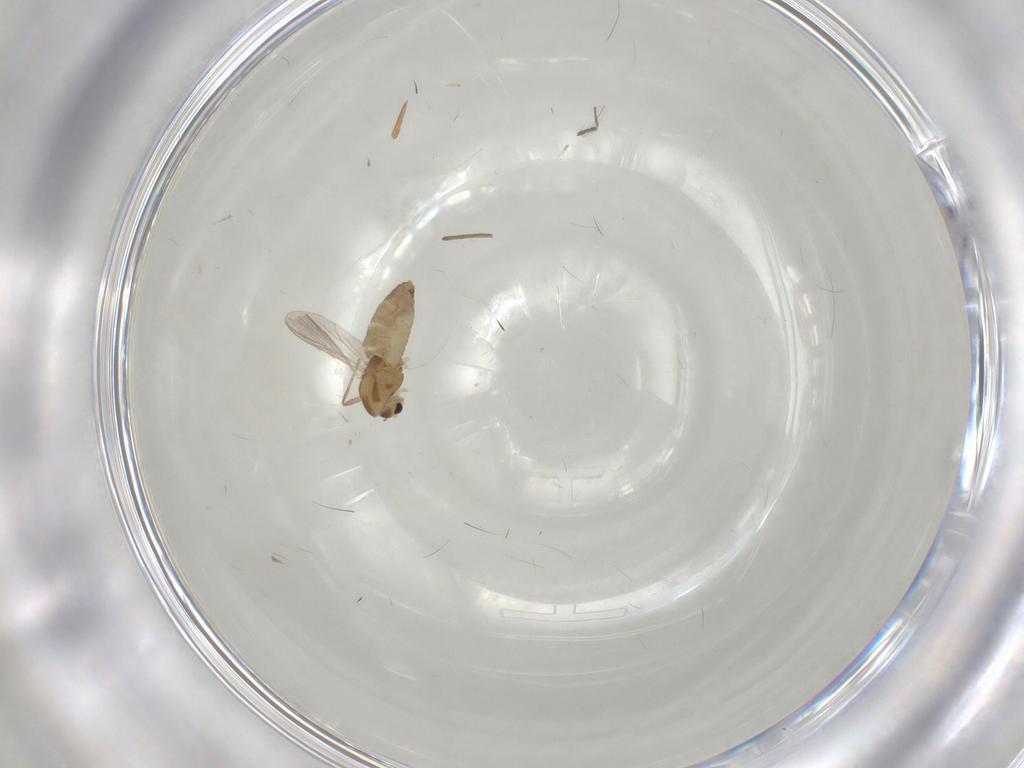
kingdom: Animalia
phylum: Arthropoda
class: Insecta
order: Diptera
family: Chironomidae
